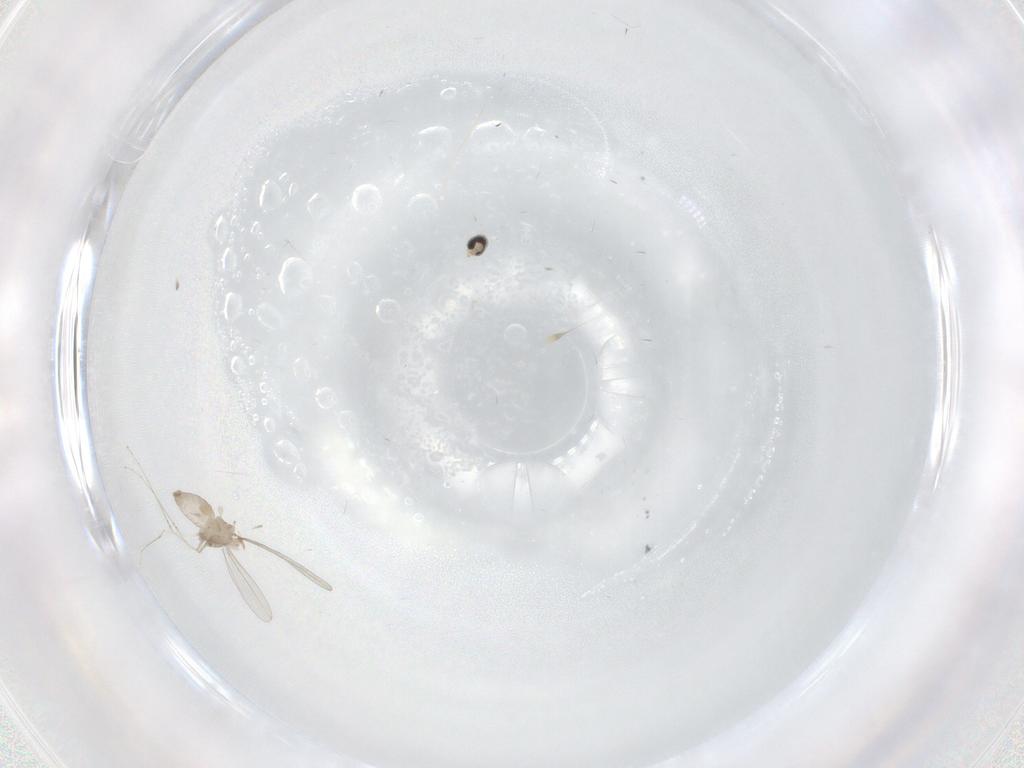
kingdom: Animalia
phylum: Arthropoda
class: Insecta
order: Diptera
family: Cecidomyiidae
